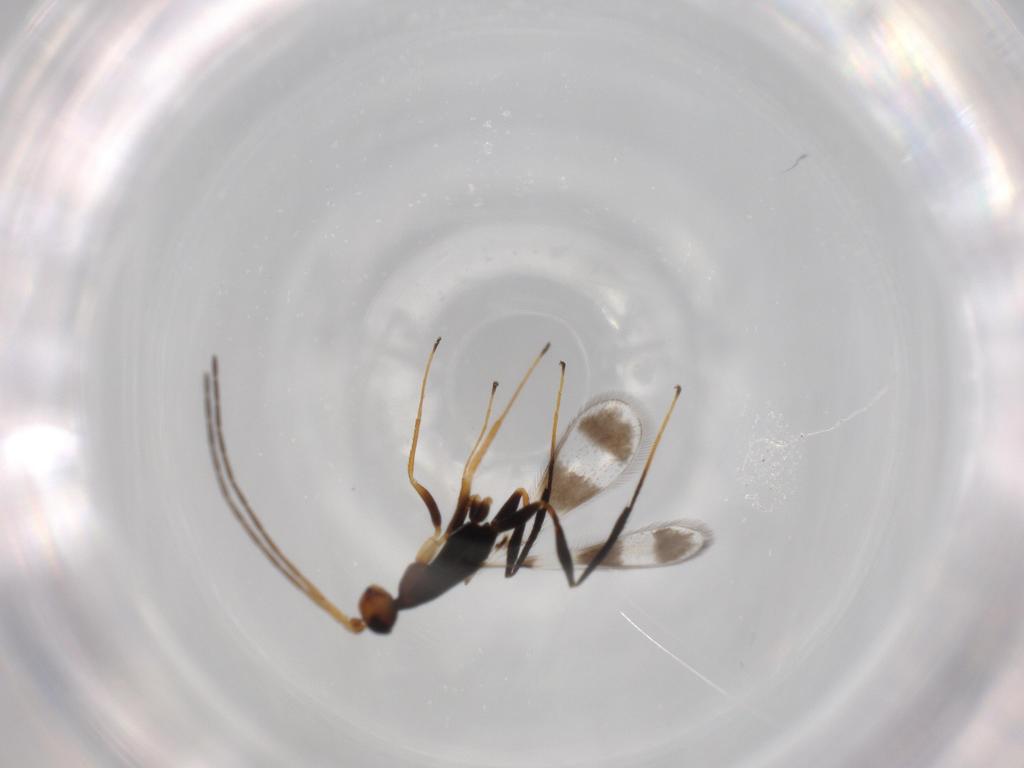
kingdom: Animalia
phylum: Arthropoda
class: Insecta
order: Hymenoptera
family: Mymaridae
